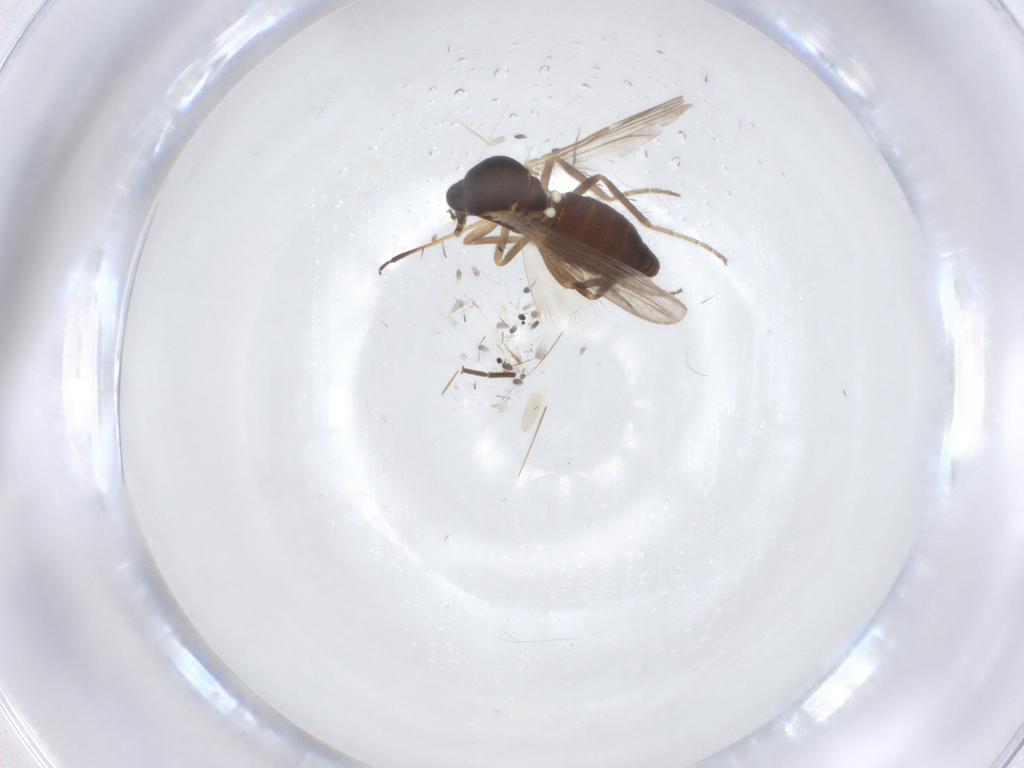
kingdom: Animalia
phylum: Arthropoda
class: Insecta
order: Diptera
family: Ceratopogonidae
